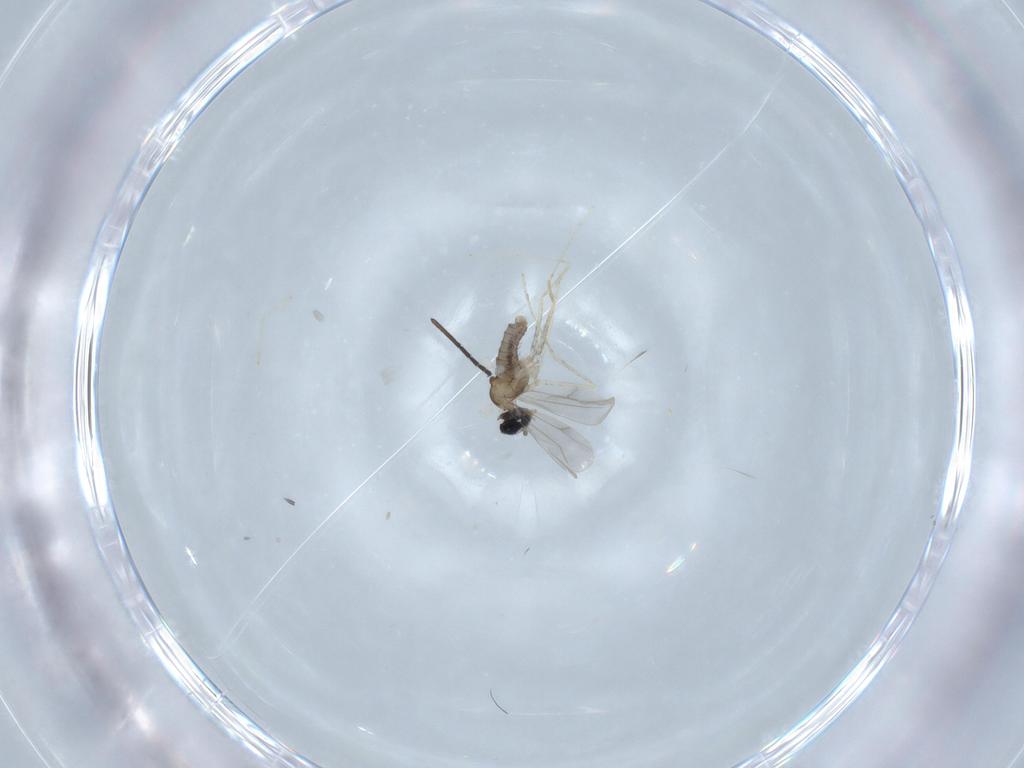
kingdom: Animalia
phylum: Arthropoda
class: Insecta
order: Diptera
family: Cecidomyiidae
